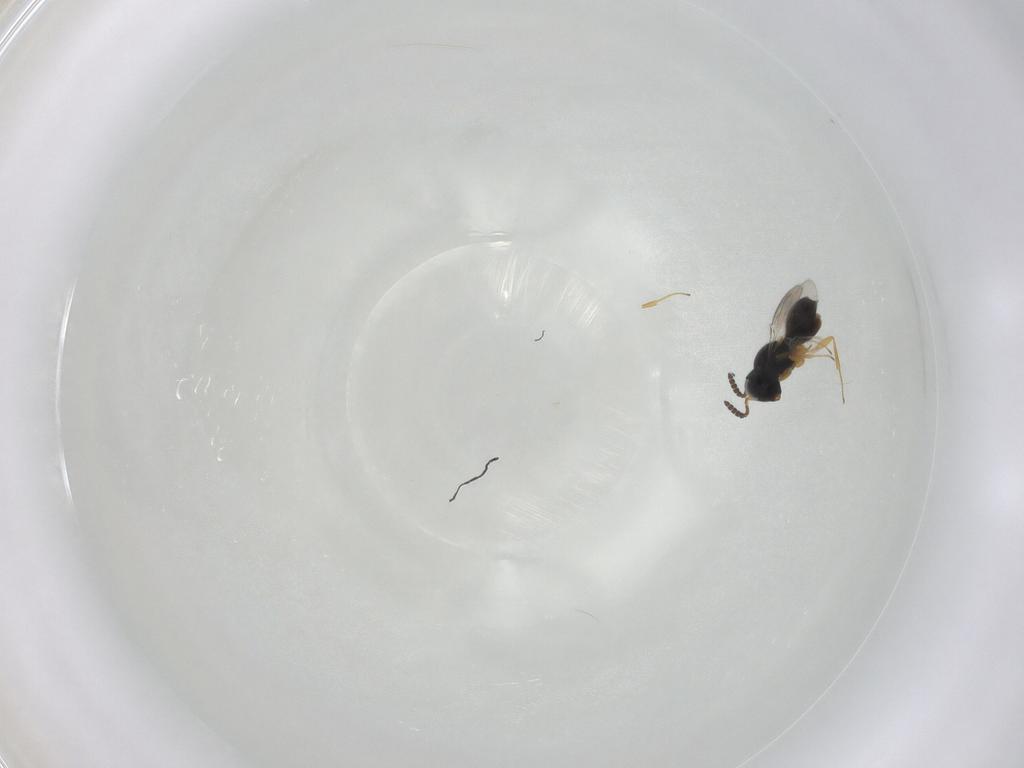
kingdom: Animalia
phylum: Arthropoda
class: Insecta
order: Hymenoptera
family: Scelionidae
